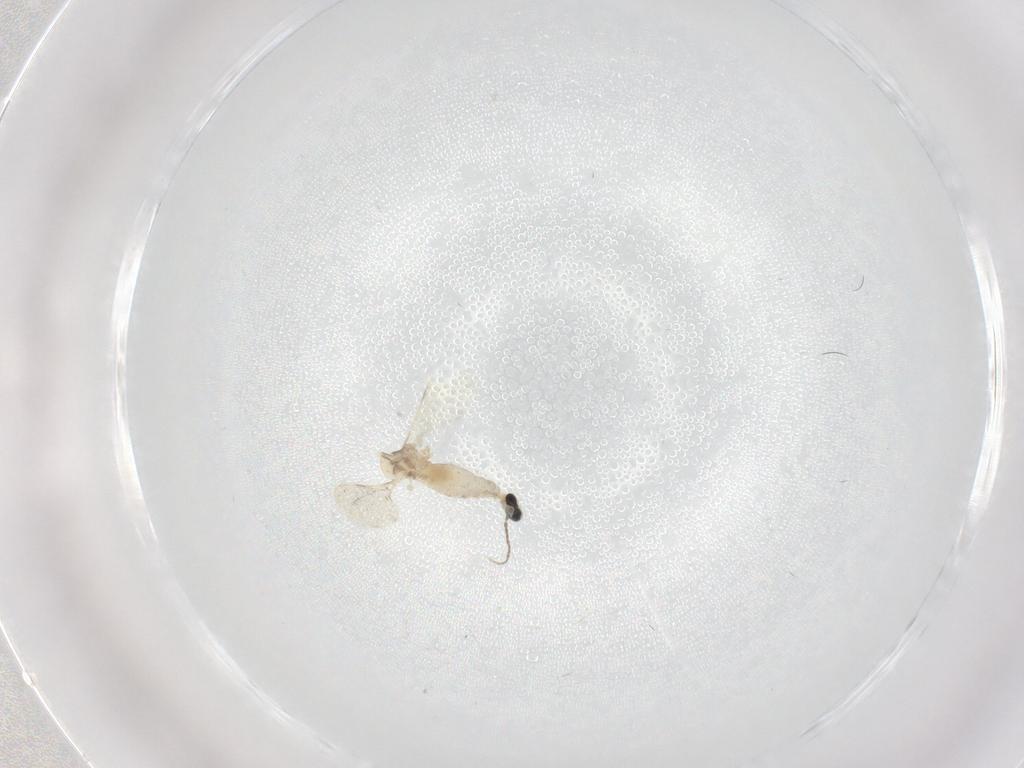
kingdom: Animalia
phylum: Arthropoda
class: Insecta
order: Diptera
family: Cecidomyiidae
